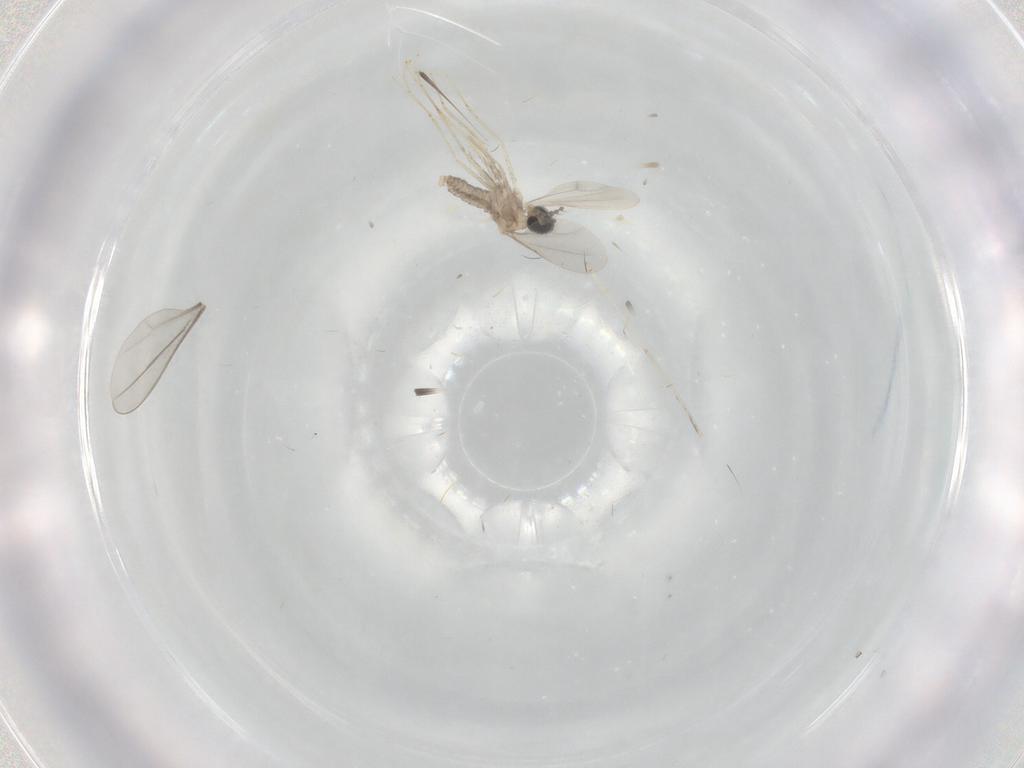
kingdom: Animalia
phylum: Arthropoda
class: Insecta
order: Diptera
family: Cecidomyiidae
